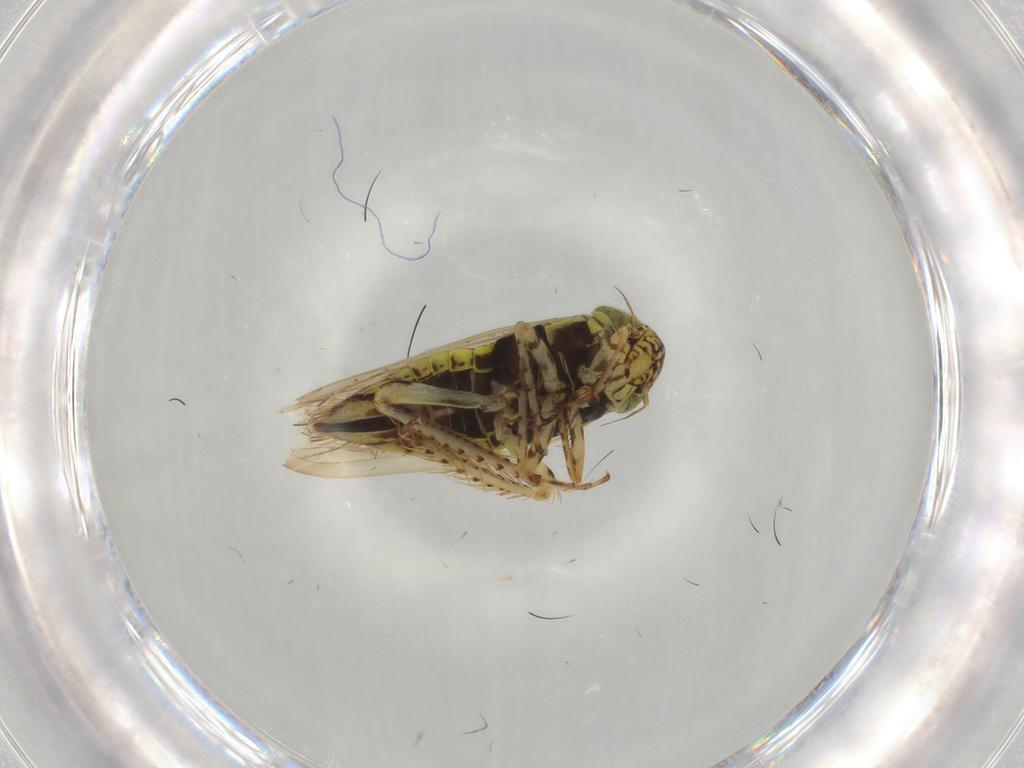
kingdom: Animalia
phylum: Arthropoda
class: Insecta
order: Hemiptera
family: Cicadellidae
